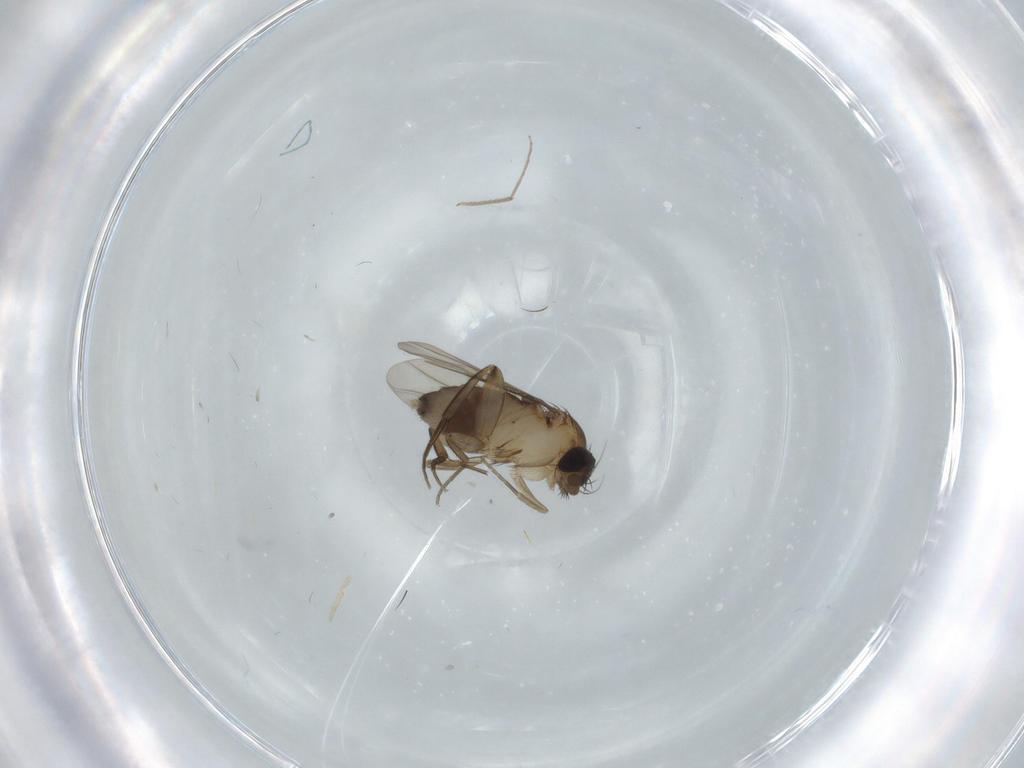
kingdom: Animalia
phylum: Arthropoda
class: Insecta
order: Diptera
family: Phoridae
